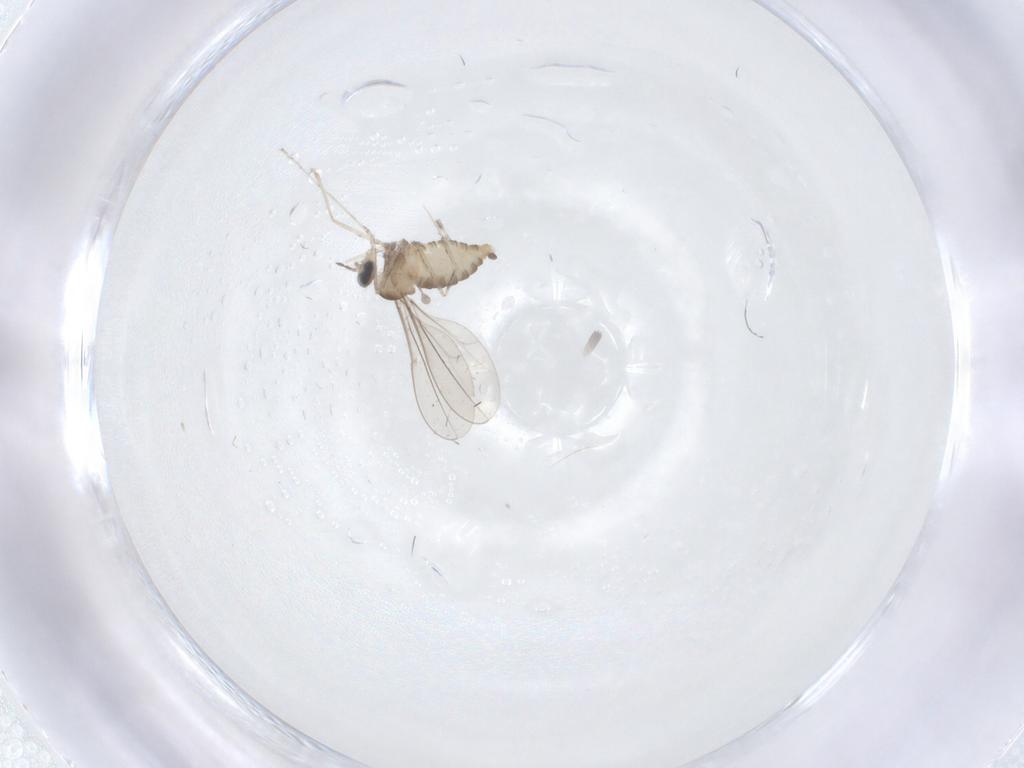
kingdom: Animalia
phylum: Arthropoda
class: Insecta
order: Diptera
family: Cecidomyiidae
